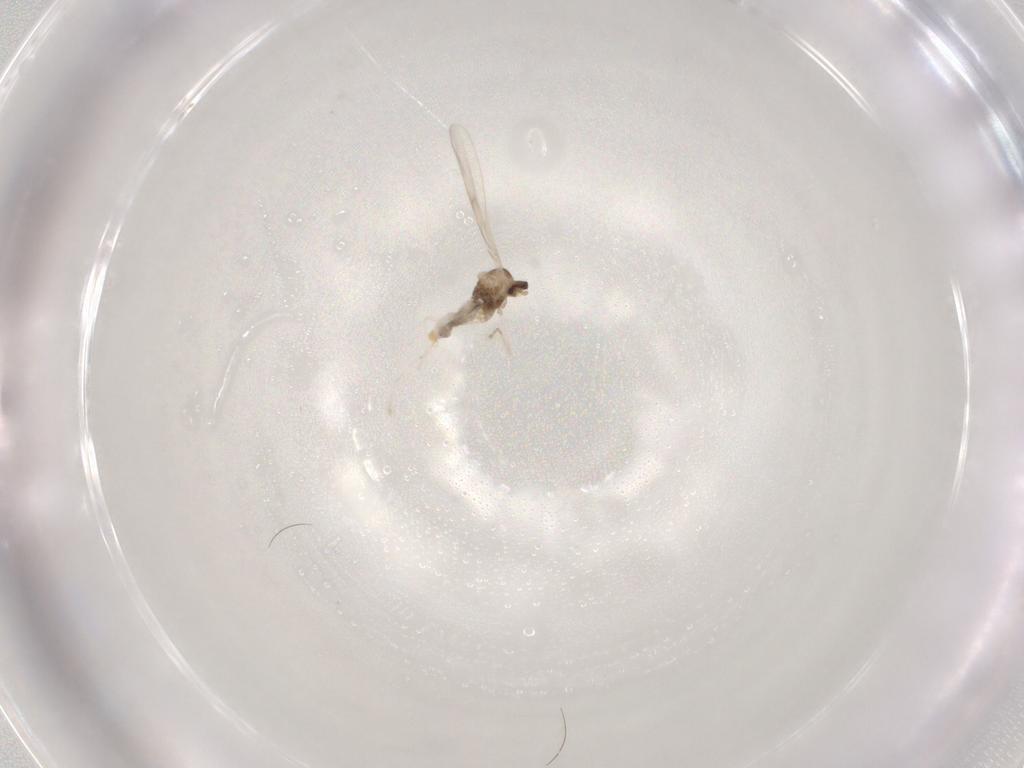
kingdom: Animalia
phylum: Arthropoda
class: Insecta
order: Diptera
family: Cecidomyiidae
